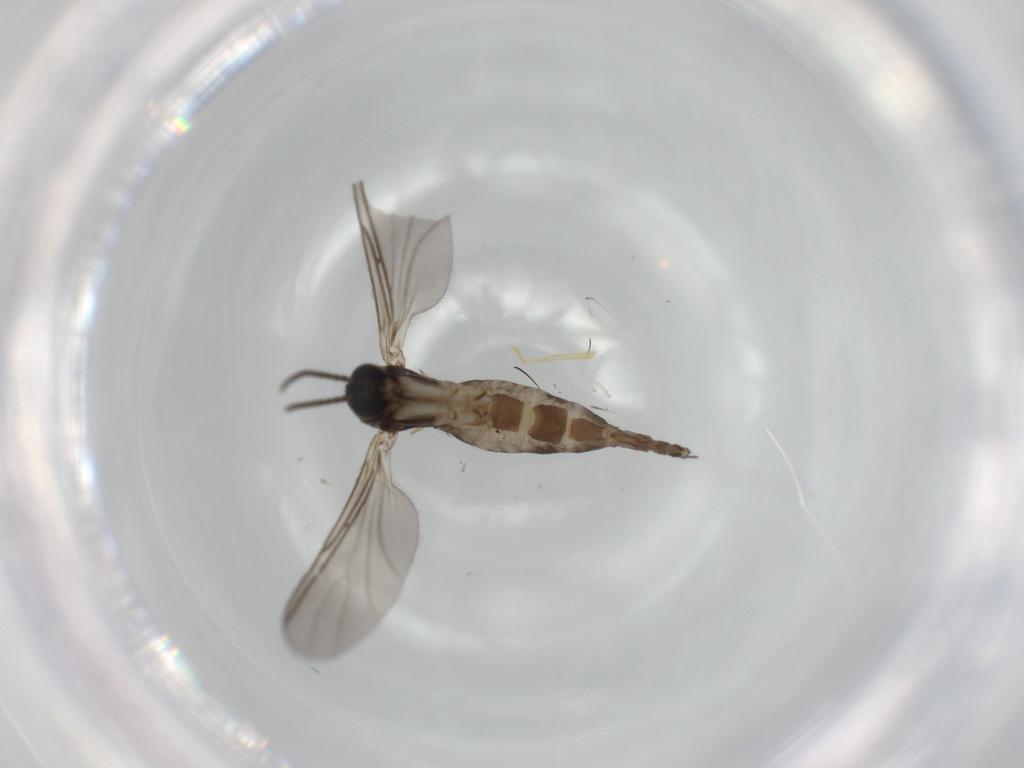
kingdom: Animalia
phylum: Arthropoda
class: Insecta
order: Diptera
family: Sciaridae
